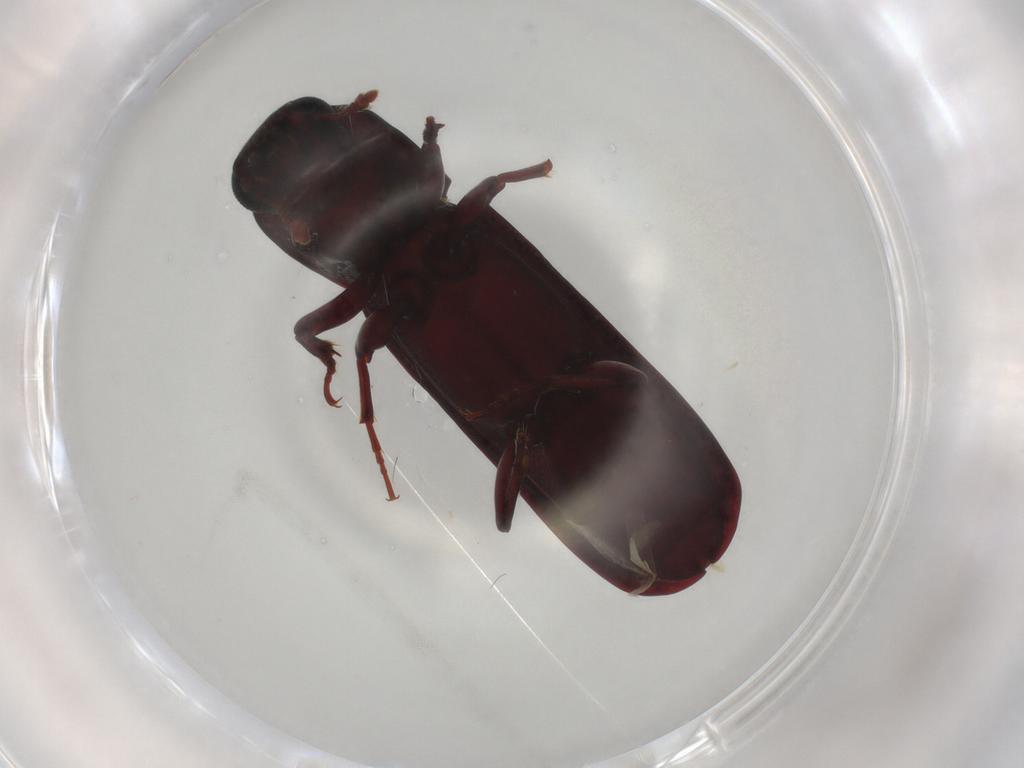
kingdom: Animalia
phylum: Arthropoda
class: Insecta
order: Coleoptera
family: Zopheridae
